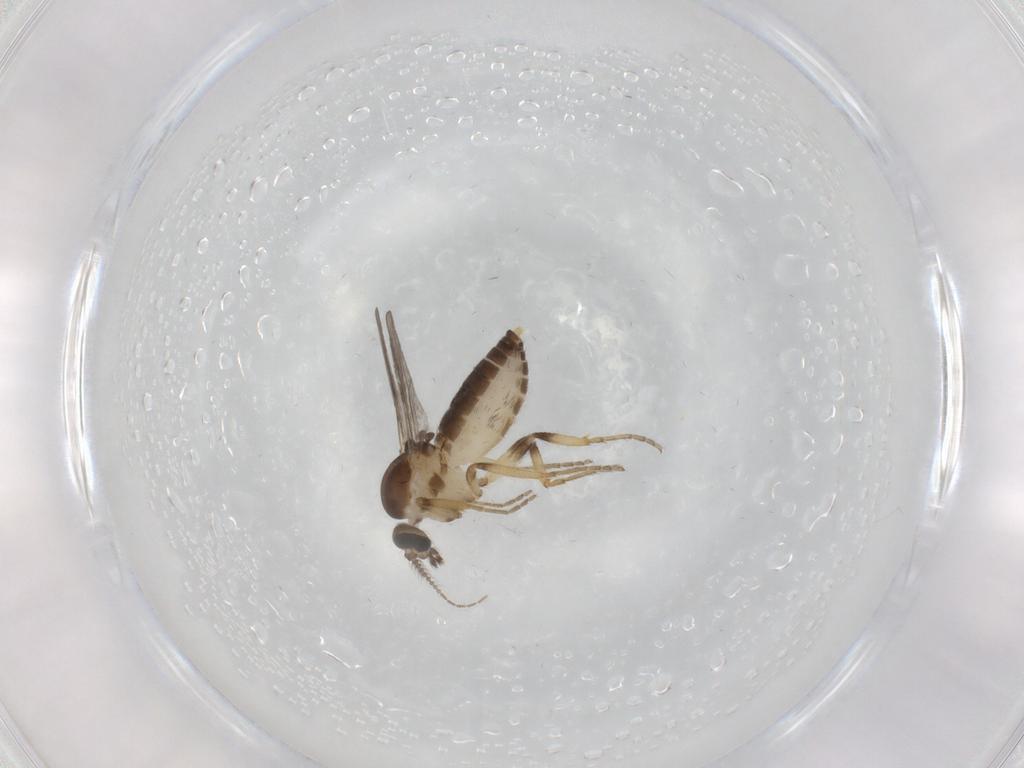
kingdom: Animalia
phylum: Arthropoda
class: Insecta
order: Diptera
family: Ceratopogonidae
